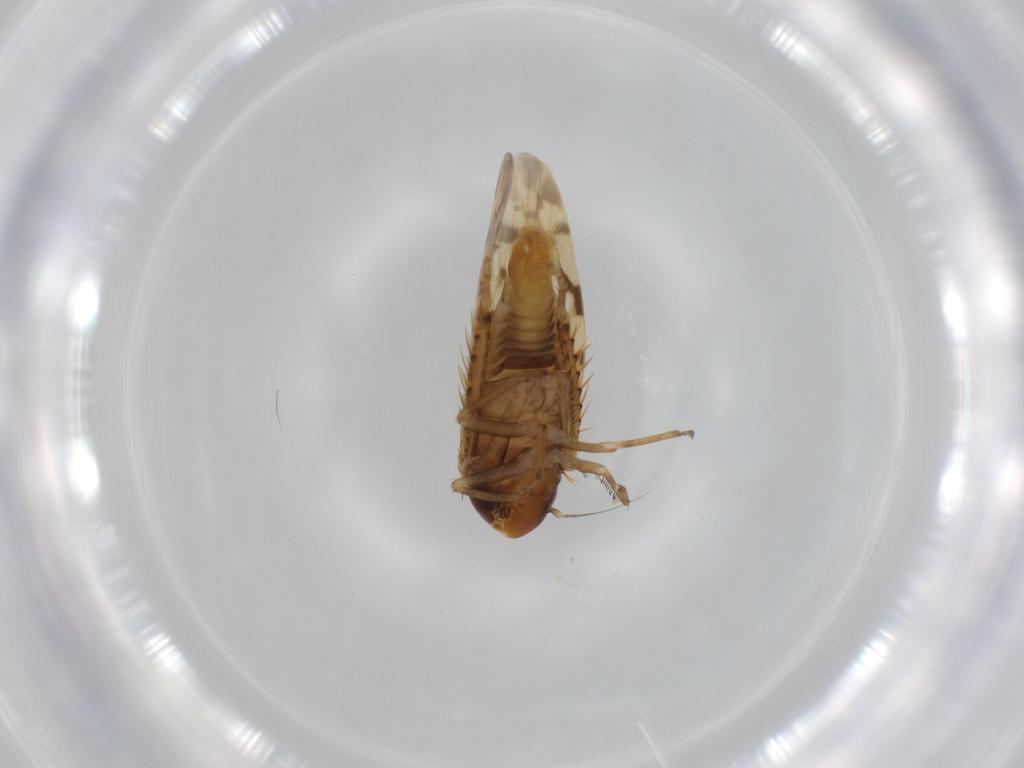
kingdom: Animalia
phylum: Arthropoda
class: Insecta
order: Hemiptera
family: Cicadellidae
